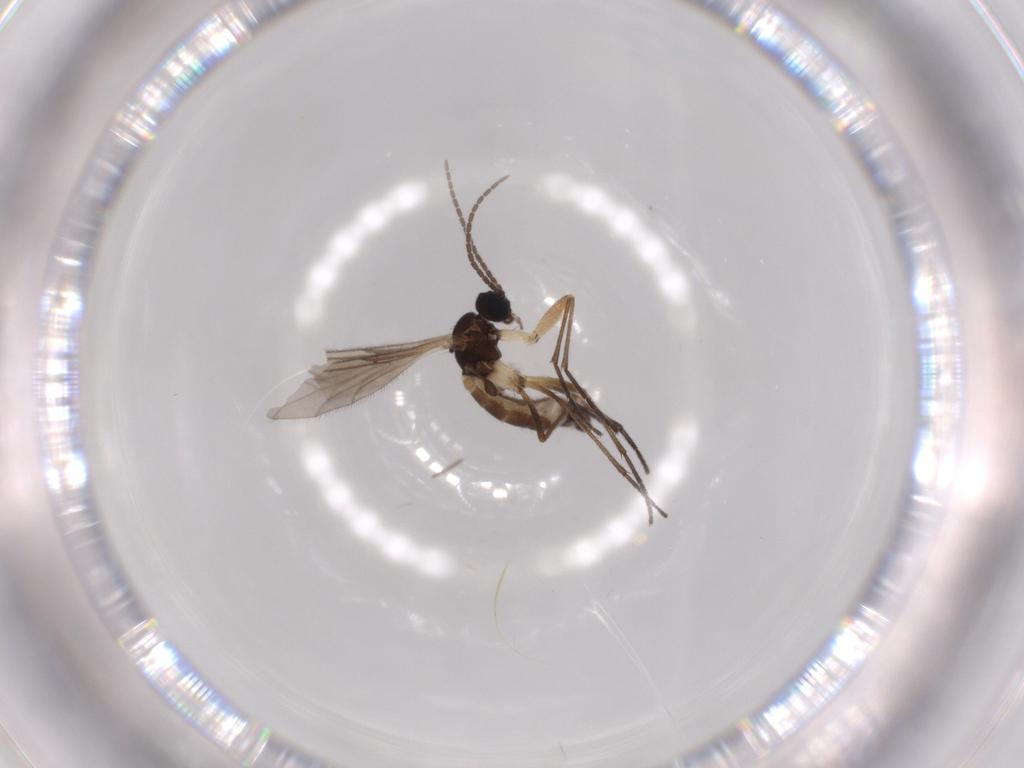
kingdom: Animalia
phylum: Arthropoda
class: Insecta
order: Diptera
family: Sciaridae
